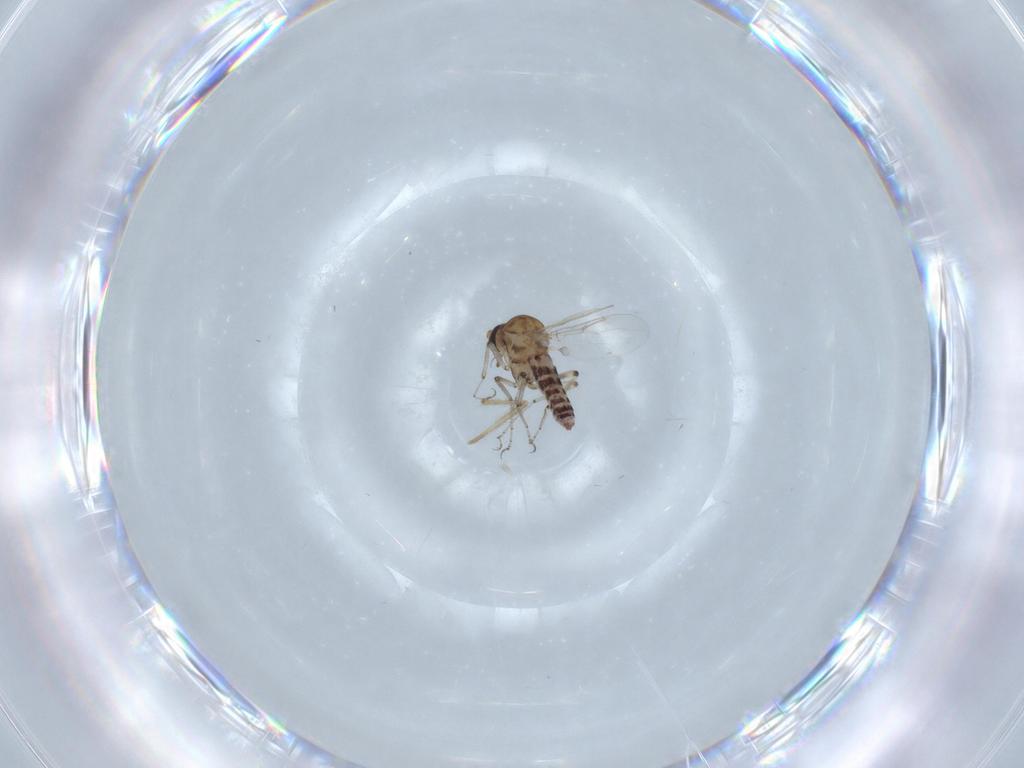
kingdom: Animalia
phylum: Arthropoda
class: Insecta
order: Diptera
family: Ceratopogonidae
